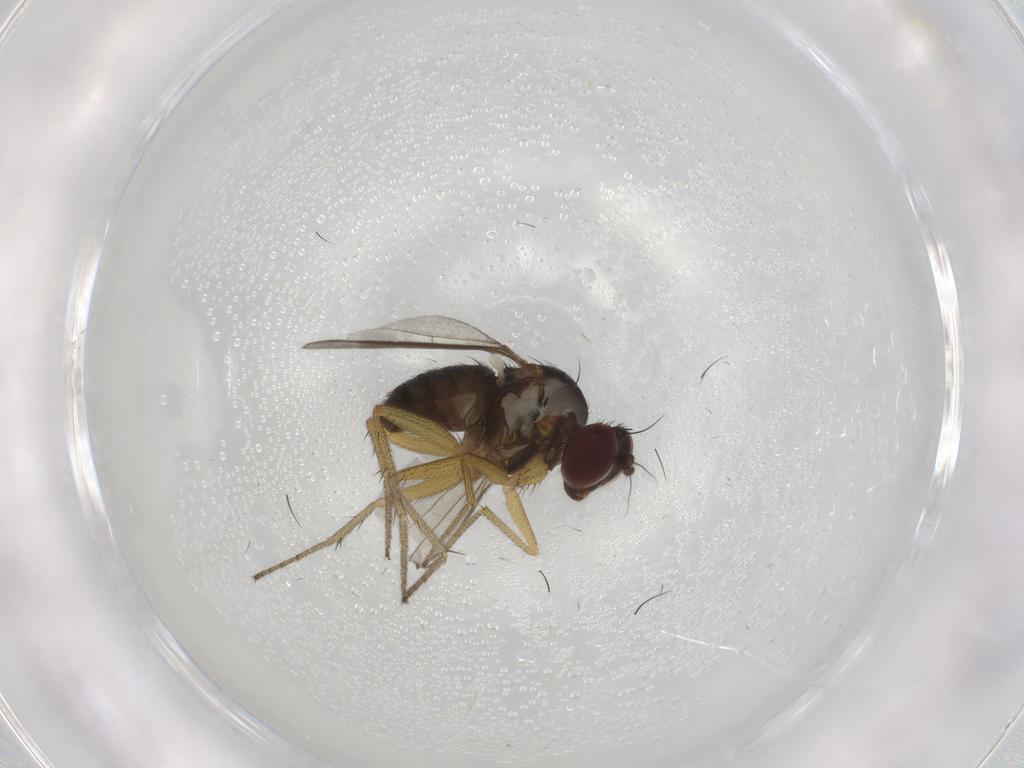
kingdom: Animalia
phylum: Arthropoda
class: Insecta
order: Diptera
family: Dolichopodidae
